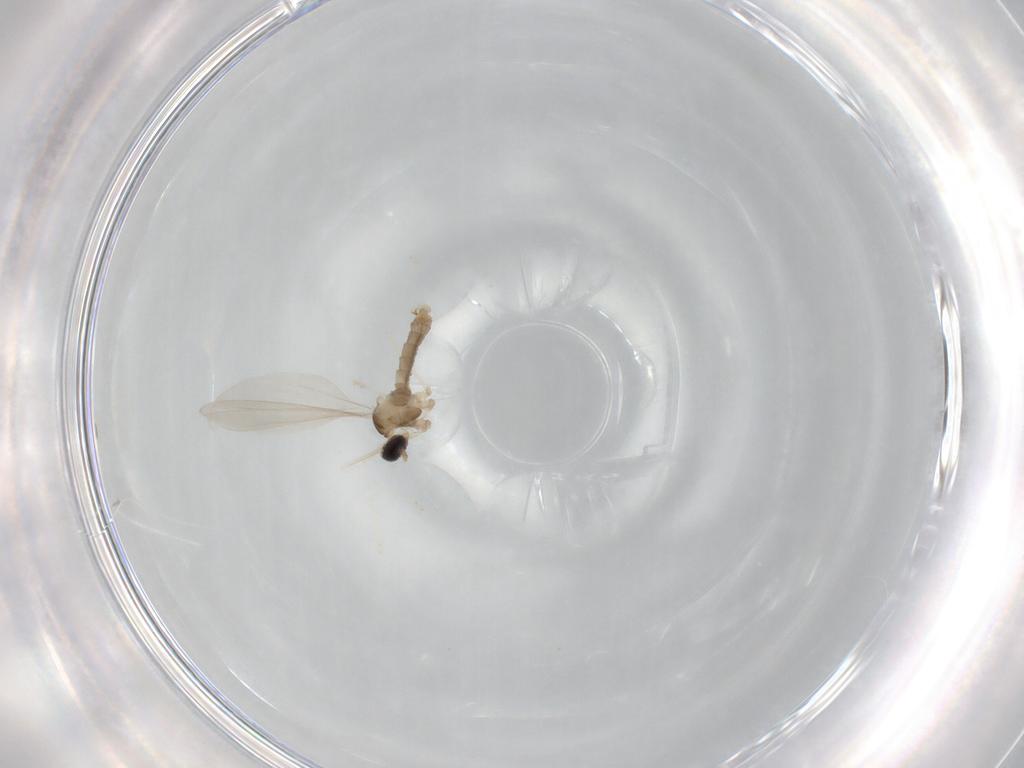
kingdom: Animalia
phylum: Arthropoda
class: Insecta
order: Diptera
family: Cecidomyiidae
